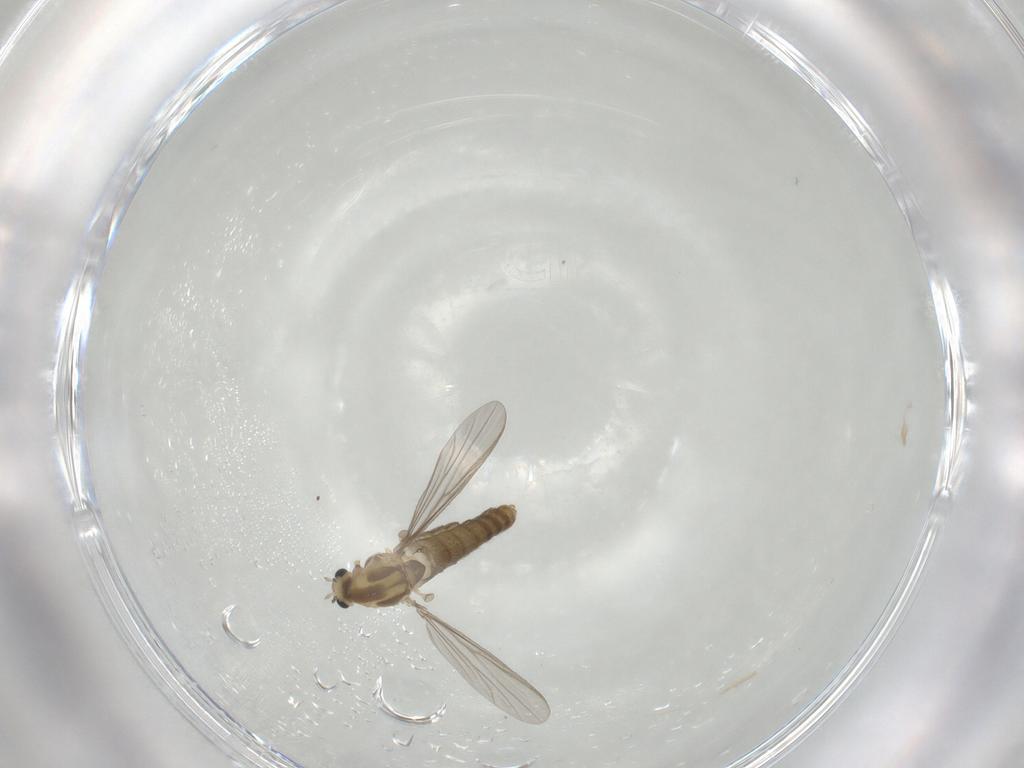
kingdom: Animalia
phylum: Arthropoda
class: Insecta
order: Diptera
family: Chironomidae
